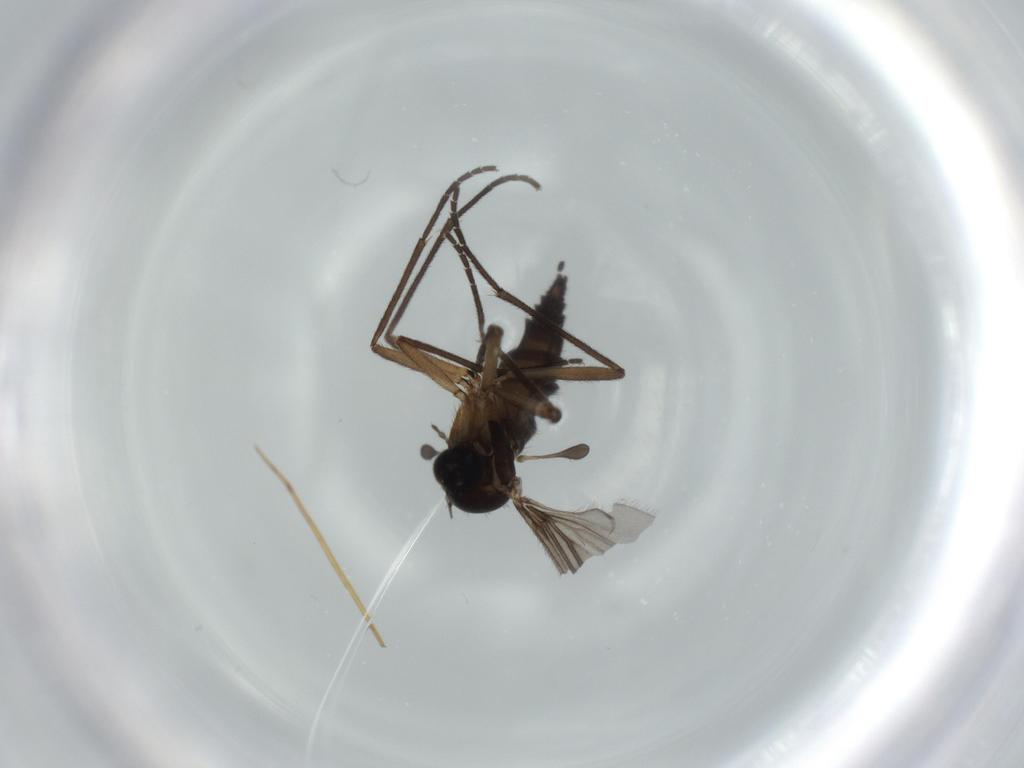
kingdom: Animalia
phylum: Arthropoda
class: Insecta
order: Diptera
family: Sciaridae
